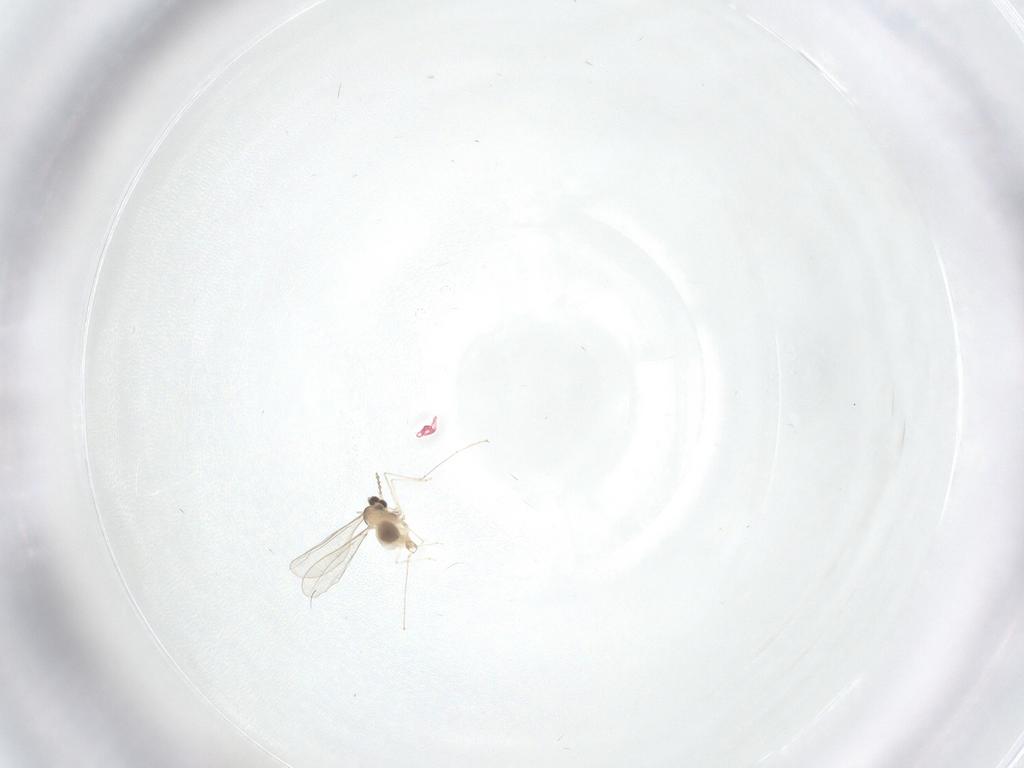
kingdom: Animalia
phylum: Arthropoda
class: Insecta
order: Diptera
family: Cecidomyiidae
